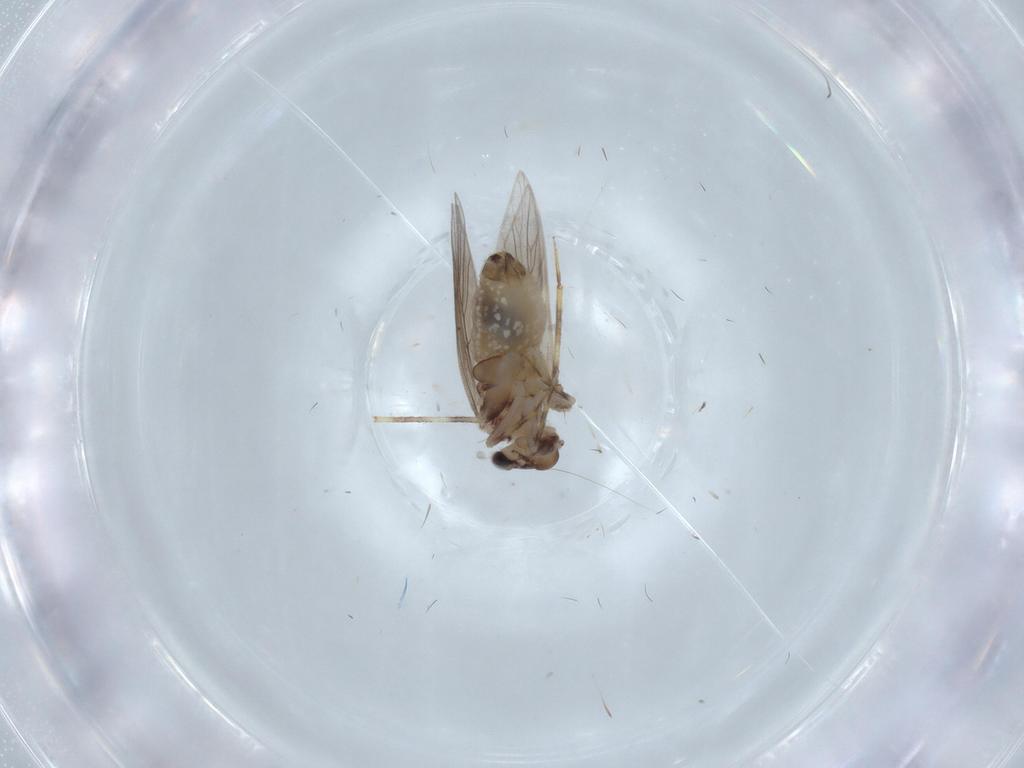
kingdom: Animalia
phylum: Arthropoda
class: Insecta
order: Psocodea
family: Lepidopsocidae
